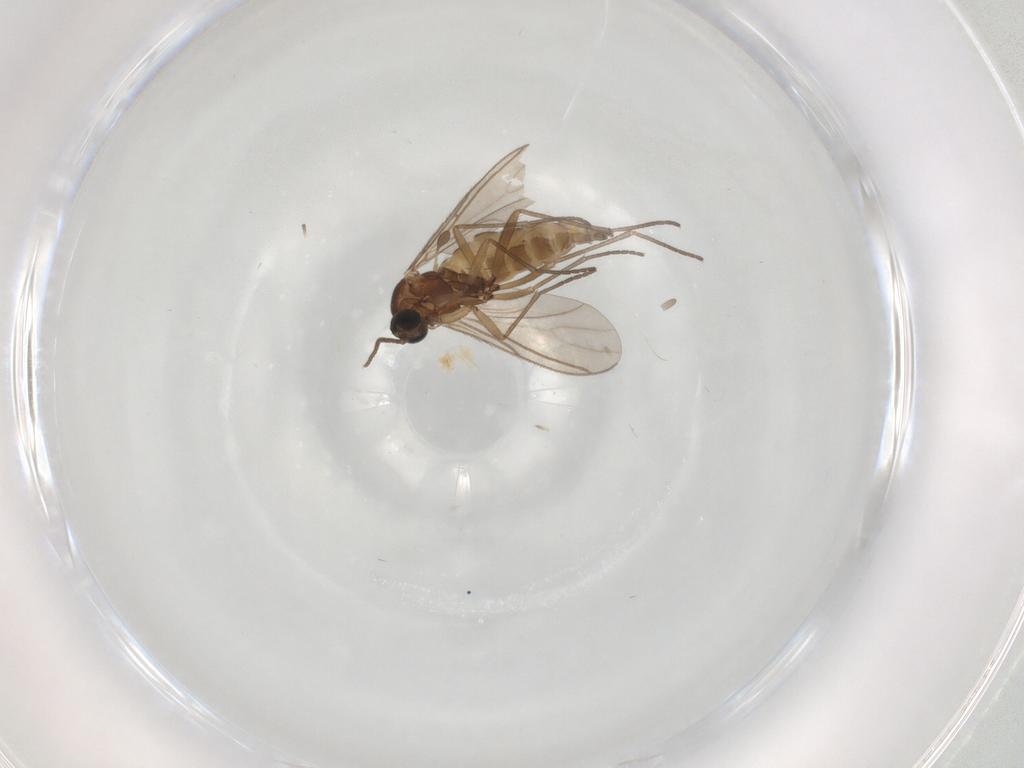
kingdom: Animalia
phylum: Arthropoda
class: Insecta
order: Diptera
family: Sciaridae
